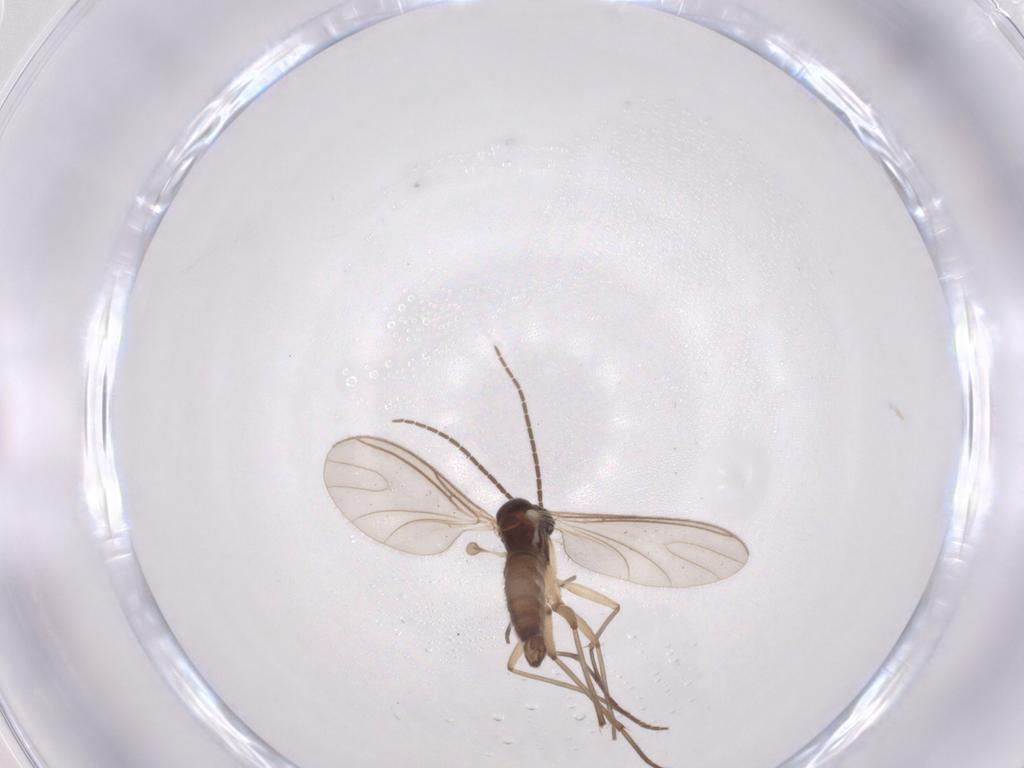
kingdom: Animalia
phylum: Arthropoda
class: Insecta
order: Diptera
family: Sciaridae
